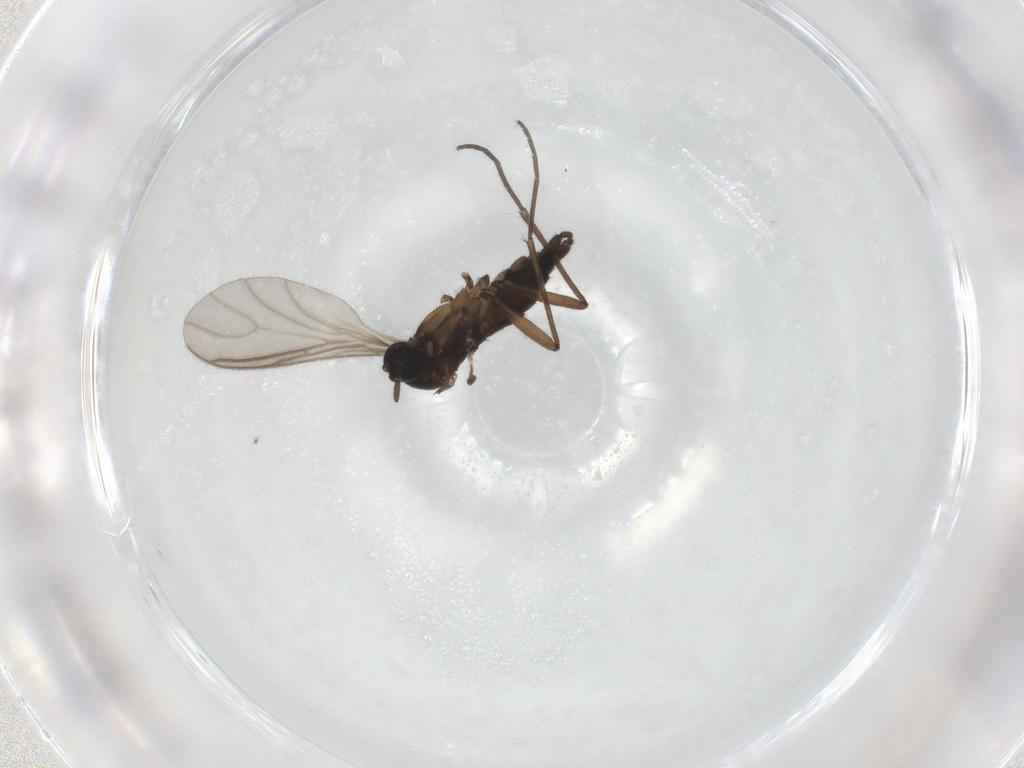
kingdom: Animalia
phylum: Arthropoda
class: Insecta
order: Diptera
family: Sciaridae
